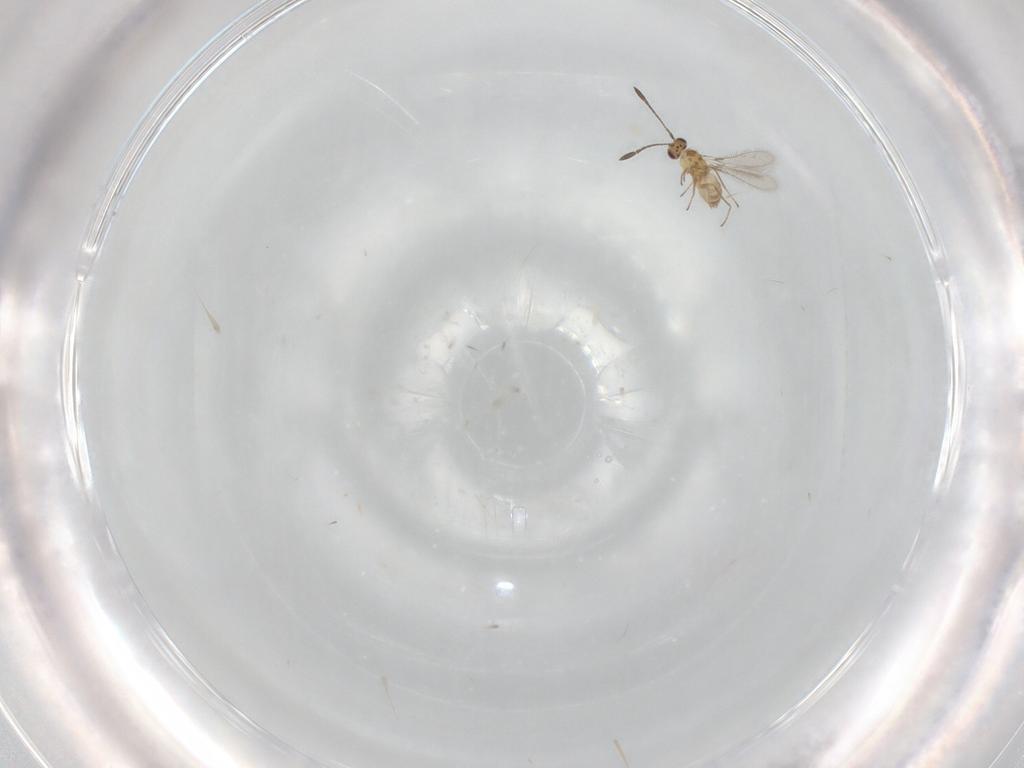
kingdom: Animalia
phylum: Arthropoda
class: Insecta
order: Hymenoptera
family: Mymaridae
